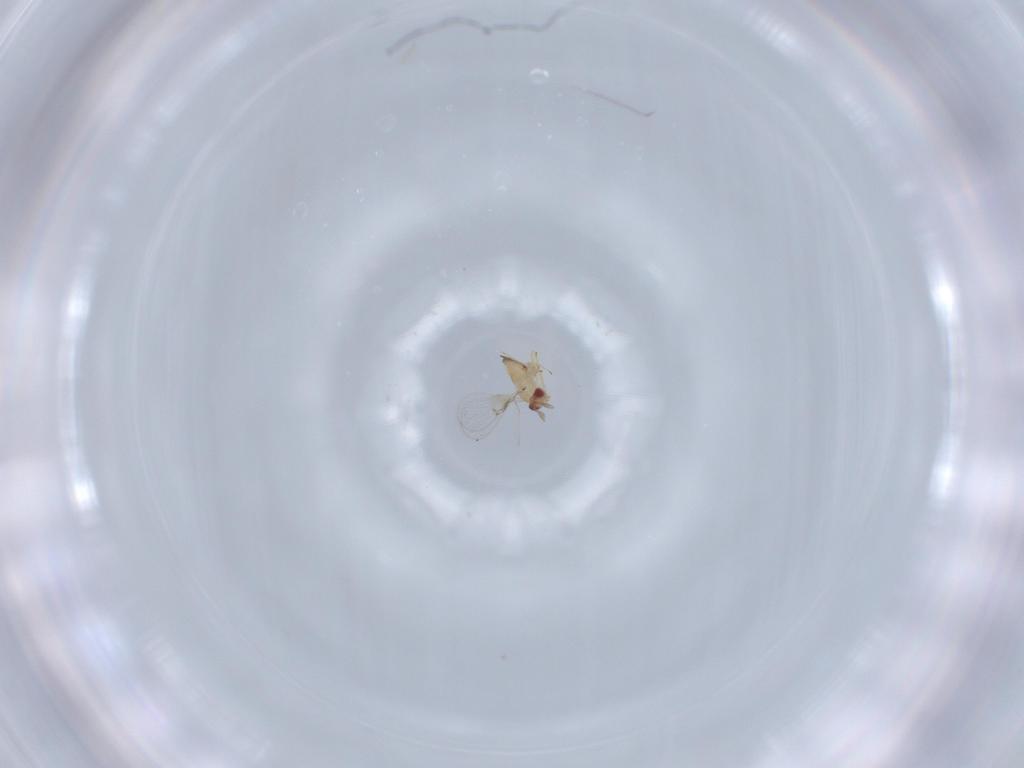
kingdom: Animalia
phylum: Arthropoda
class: Insecta
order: Hymenoptera
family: Trichogrammatidae
